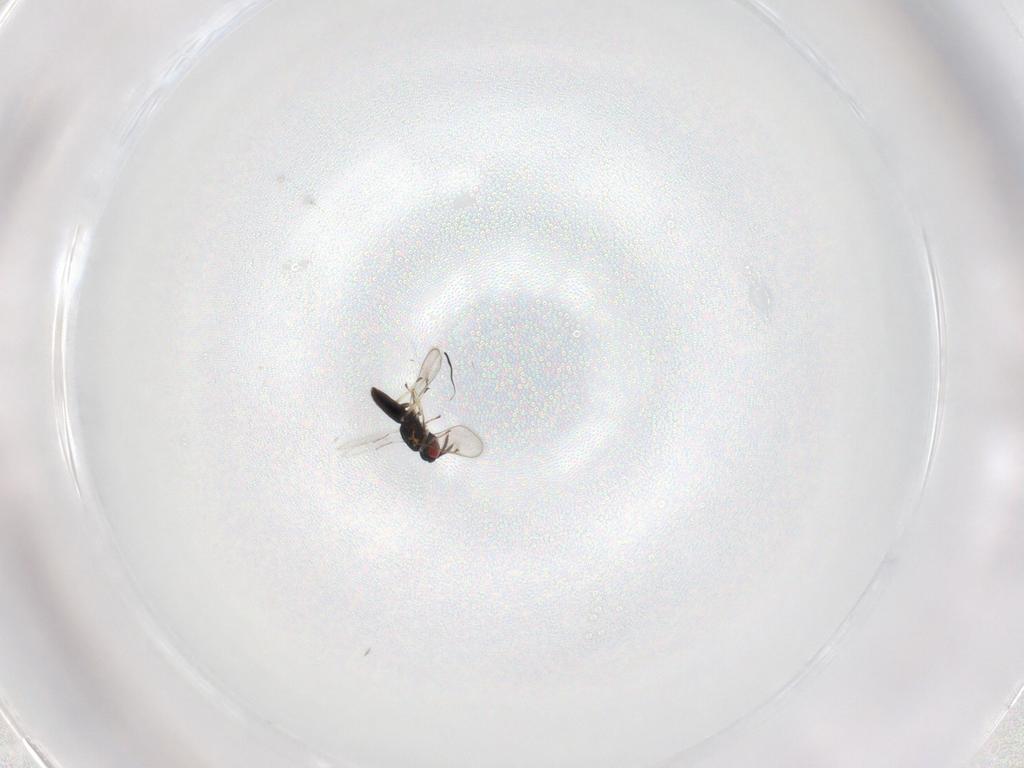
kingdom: Animalia
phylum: Arthropoda
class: Insecta
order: Hymenoptera
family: Eulophidae
